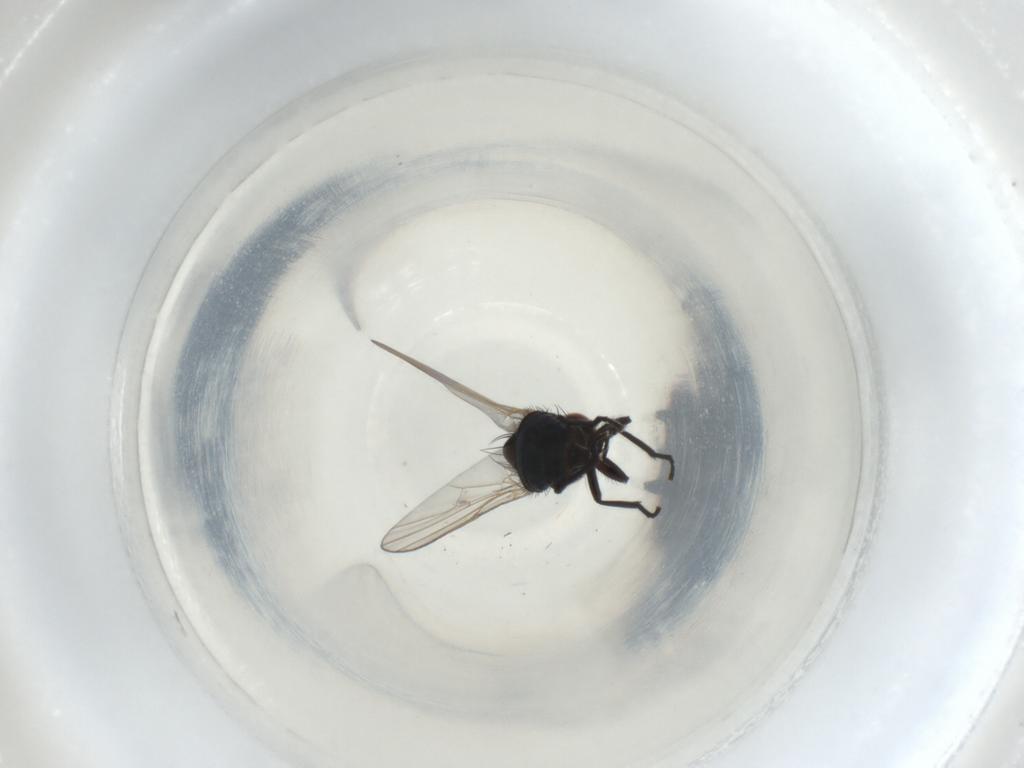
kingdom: Animalia
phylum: Arthropoda
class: Insecta
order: Diptera
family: Agromyzidae
